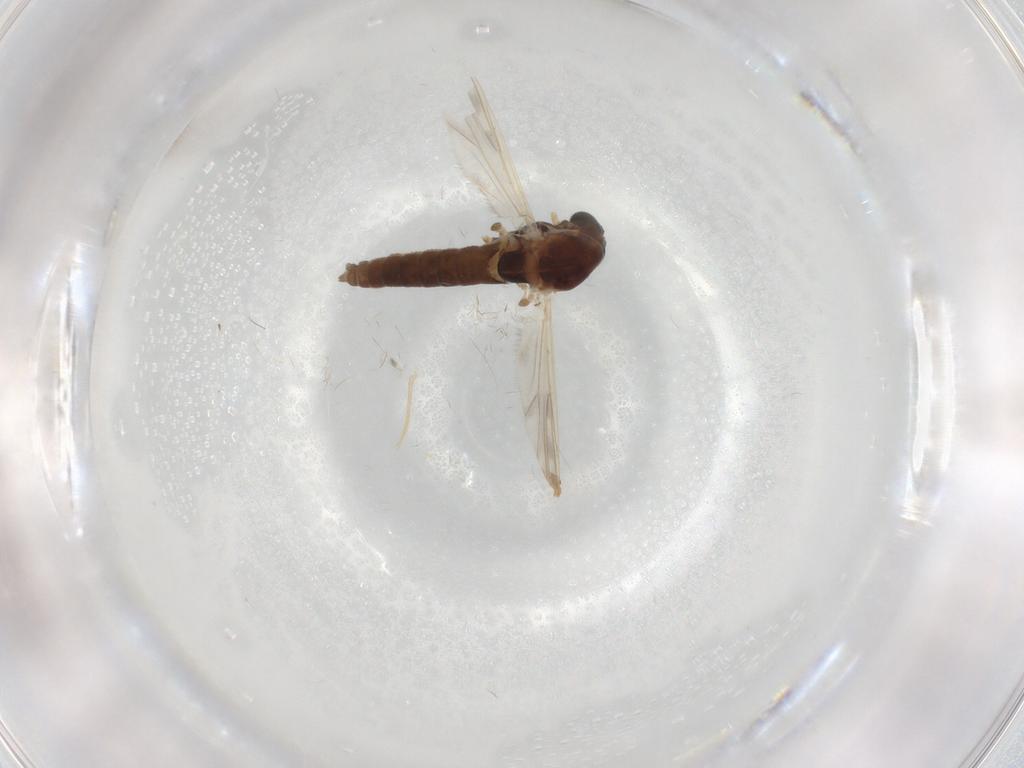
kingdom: Animalia
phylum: Arthropoda
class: Insecta
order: Diptera
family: Chironomidae
